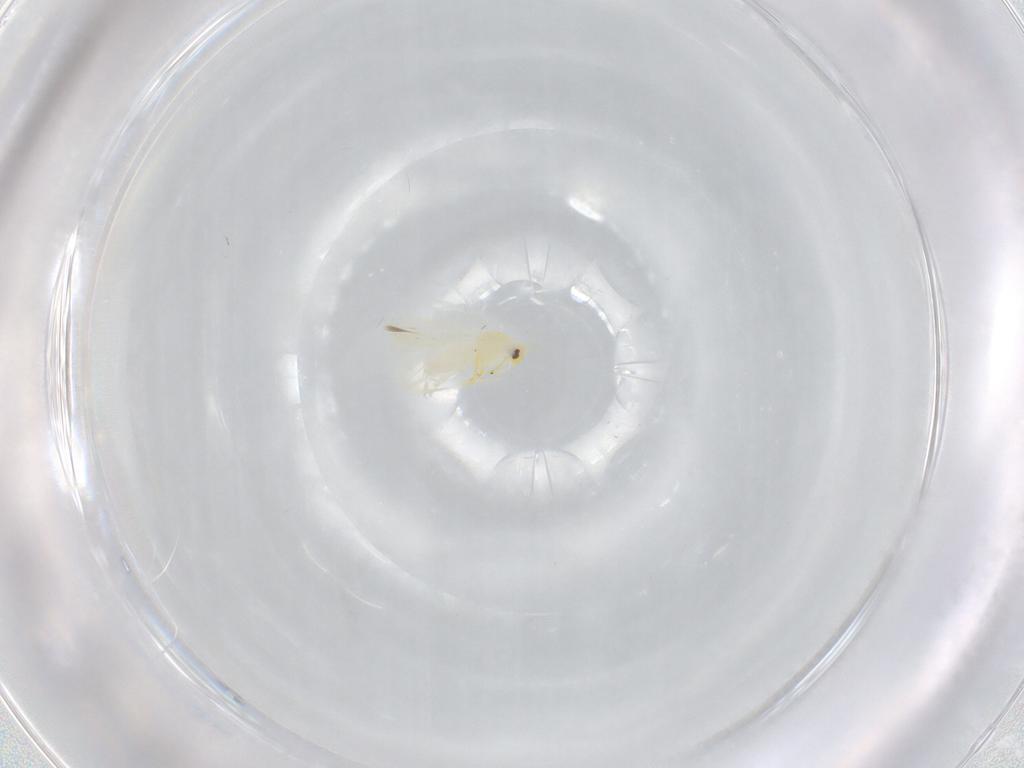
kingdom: Animalia
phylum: Arthropoda
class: Insecta
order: Hemiptera
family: Aleyrodidae
